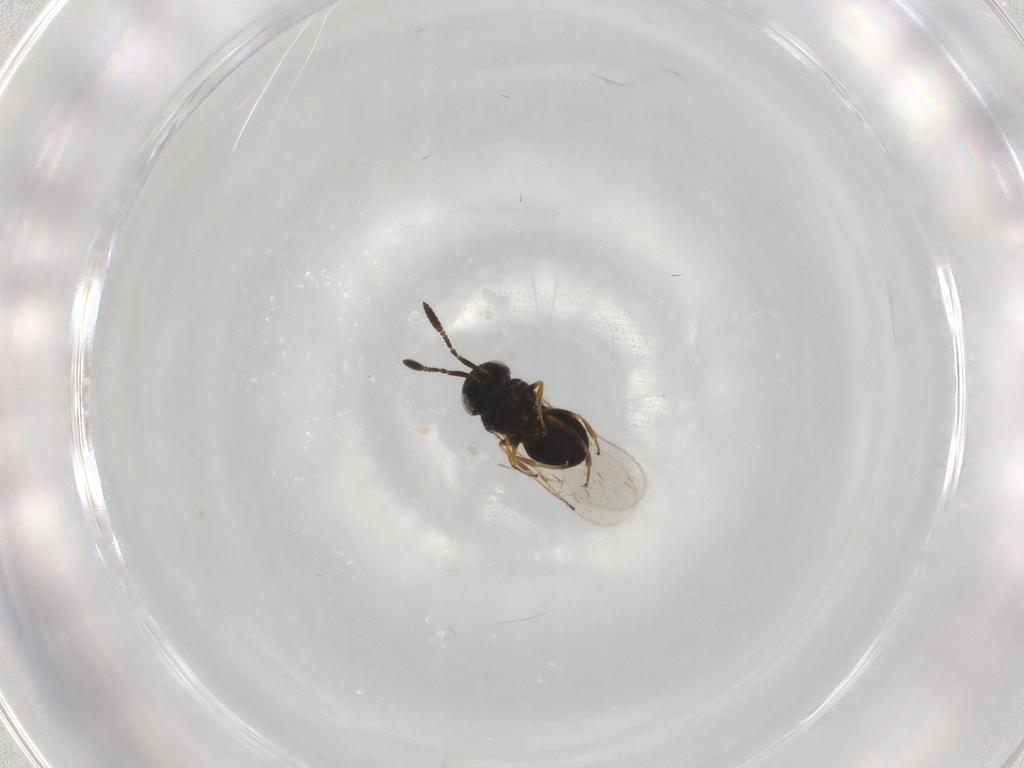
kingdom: Animalia
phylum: Arthropoda
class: Insecta
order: Hymenoptera
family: Scelionidae
